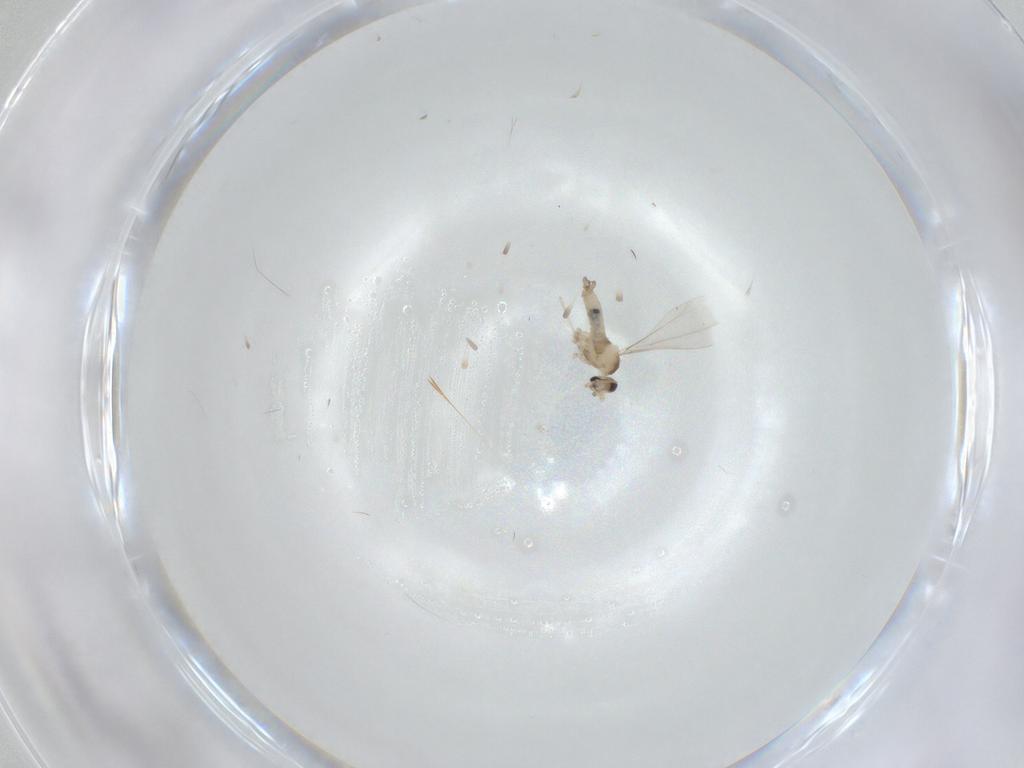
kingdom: Animalia
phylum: Arthropoda
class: Insecta
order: Diptera
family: Cecidomyiidae
